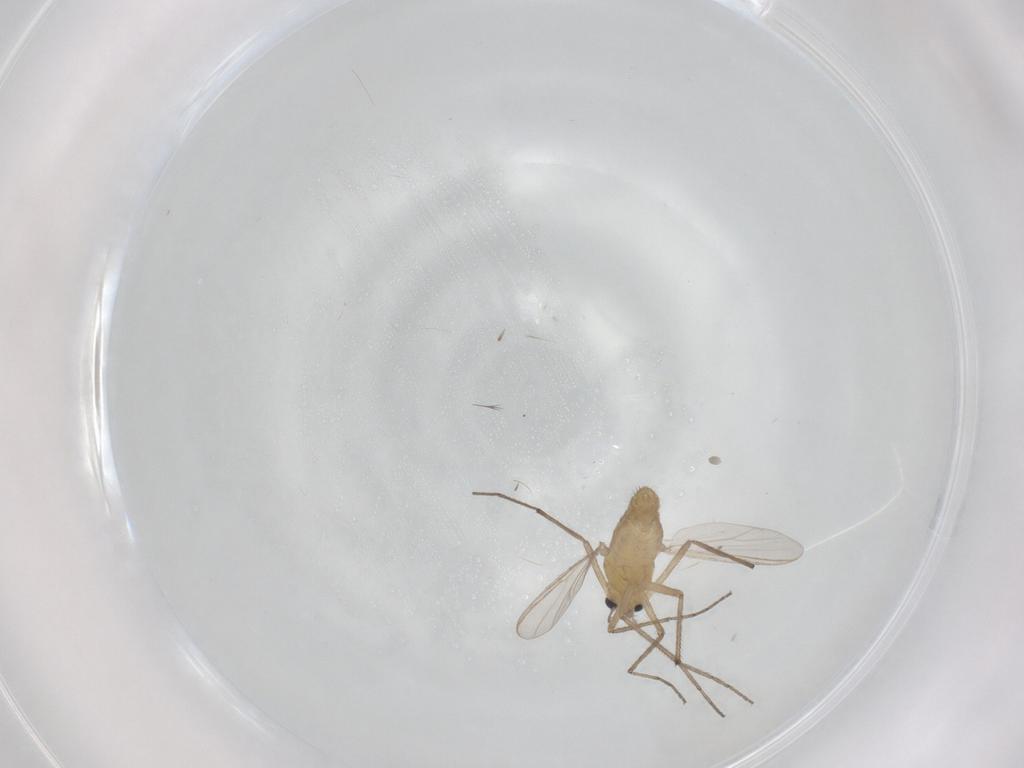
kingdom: Animalia
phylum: Arthropoda
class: Insecta
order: Diptera
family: Chironomidae
